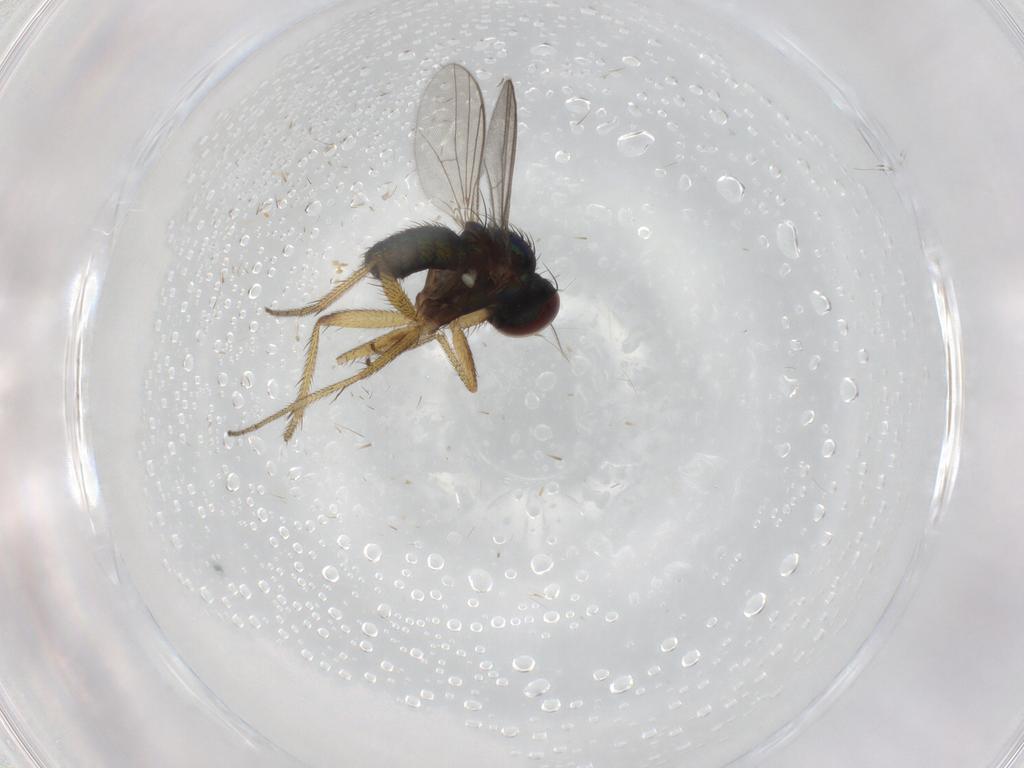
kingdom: Animalia
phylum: Arthropoda
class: Insecta
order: Diptera
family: Dolichopodidae
